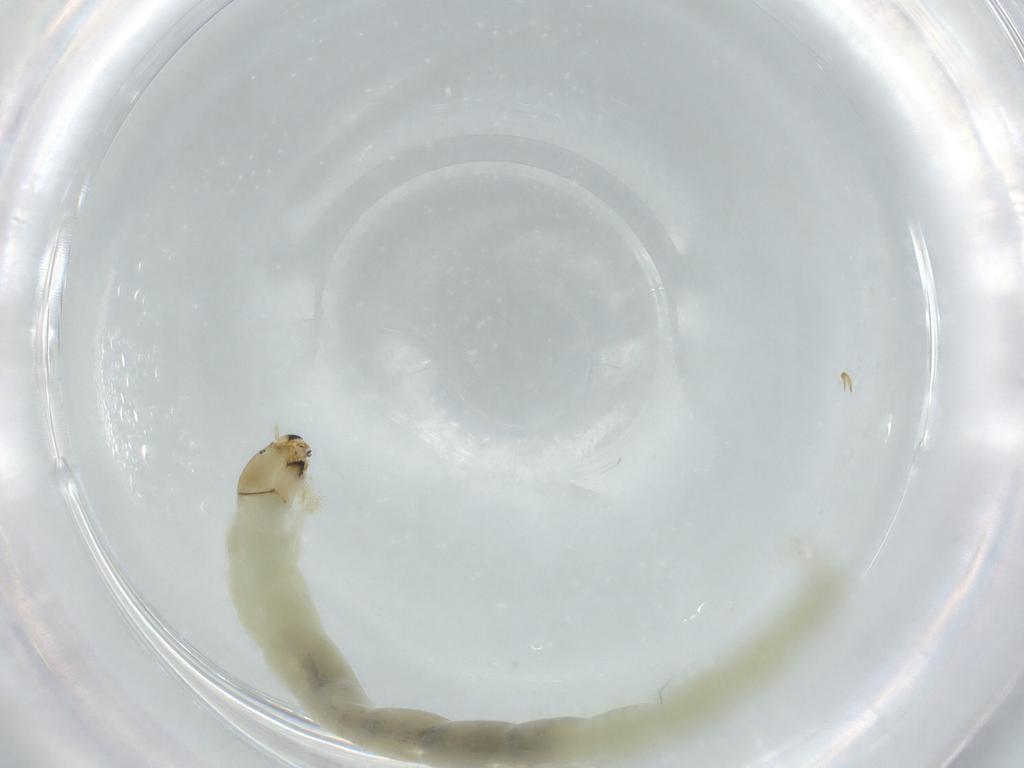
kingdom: Animalia
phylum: Arthropoda
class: Insecta
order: Diptera
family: Chironomidae
